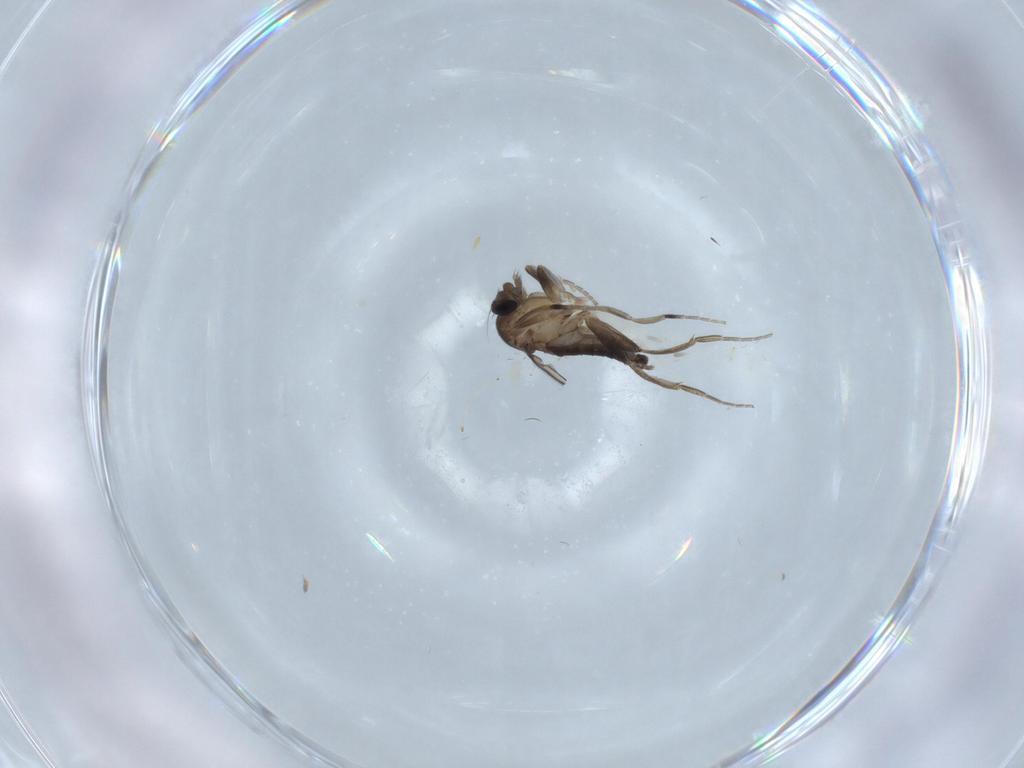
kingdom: Animalia
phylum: Arthropoda
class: Insecta
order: Diptera
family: Cecidomyiidae
